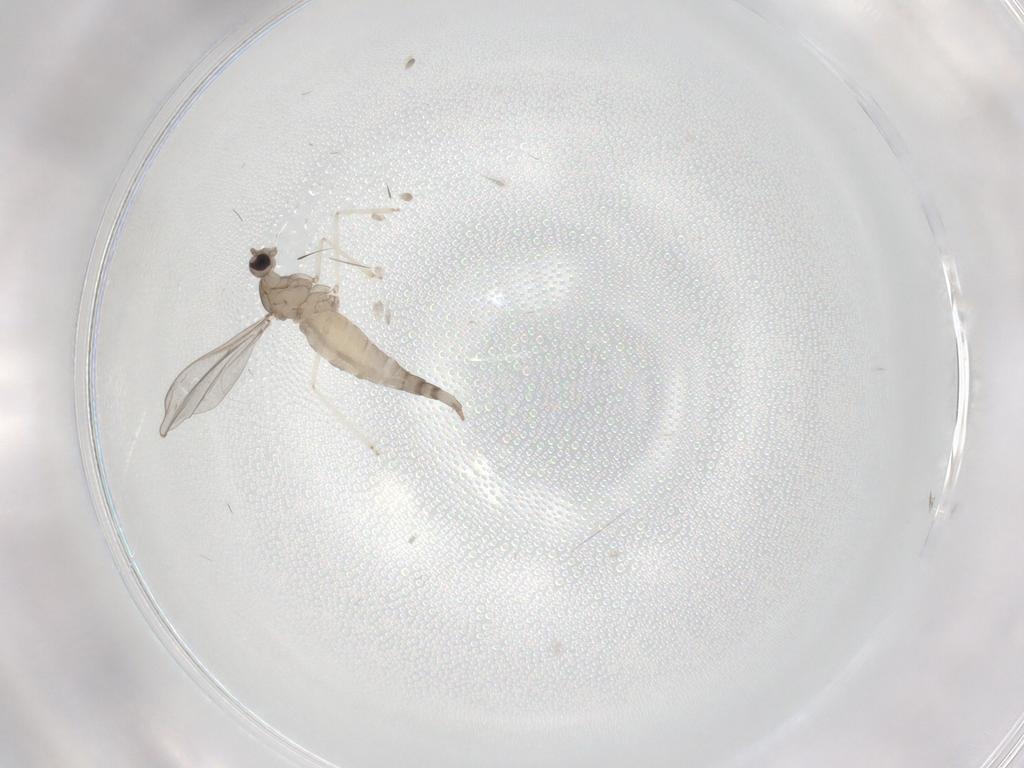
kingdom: Animalia
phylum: Arthropoda
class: Insecta
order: Diptera
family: Cecidomyiidae
